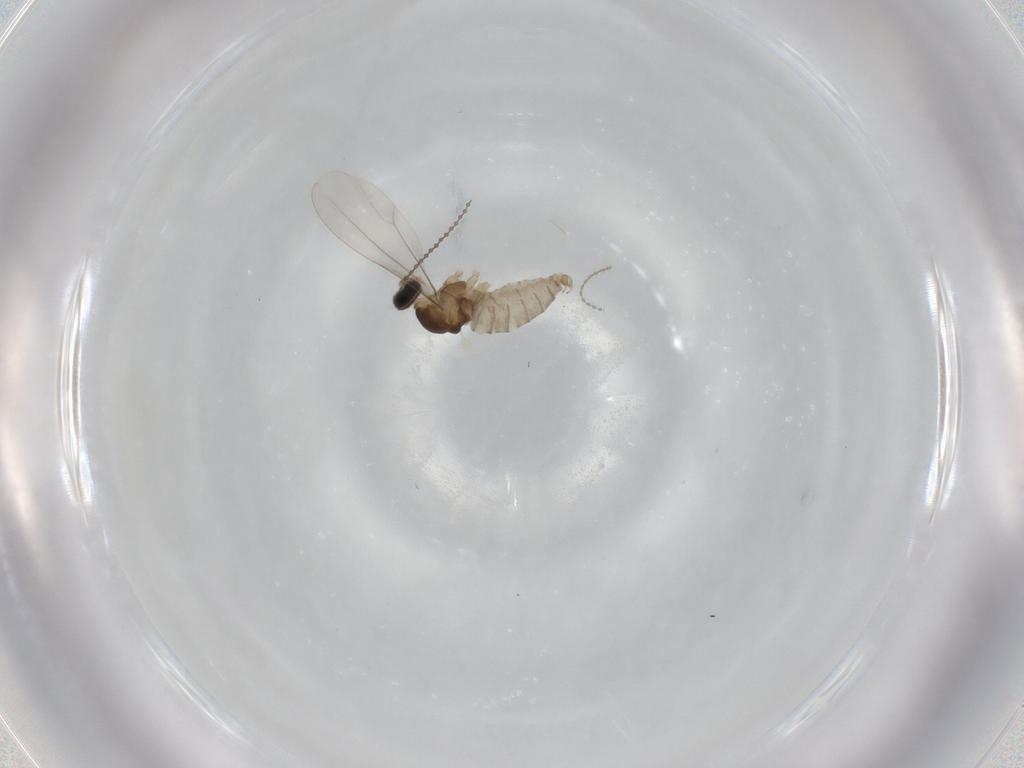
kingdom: Animalia
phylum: Arthropoda
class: Insecta
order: Diptera
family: Cecidomyiidae
